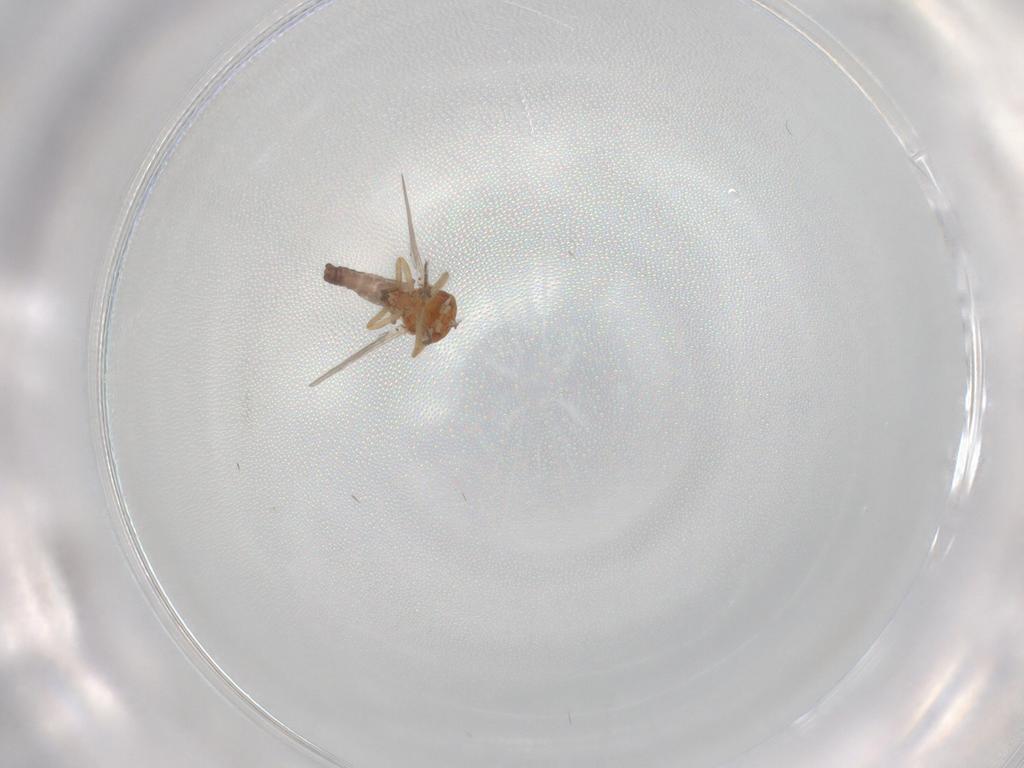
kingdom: Animalia
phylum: Arthropoda
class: Insecta
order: Diptera
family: Ceratopogonidae
